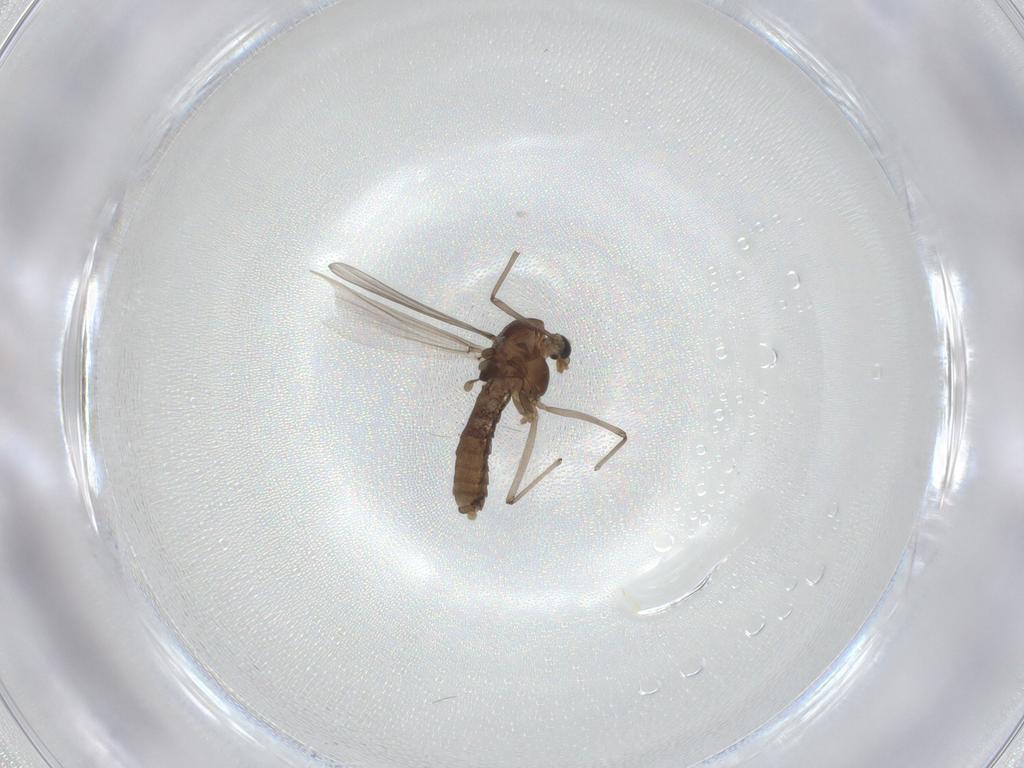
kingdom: Animalia
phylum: Arthropoda
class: Insecta
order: Diptera
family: Chironomidae
